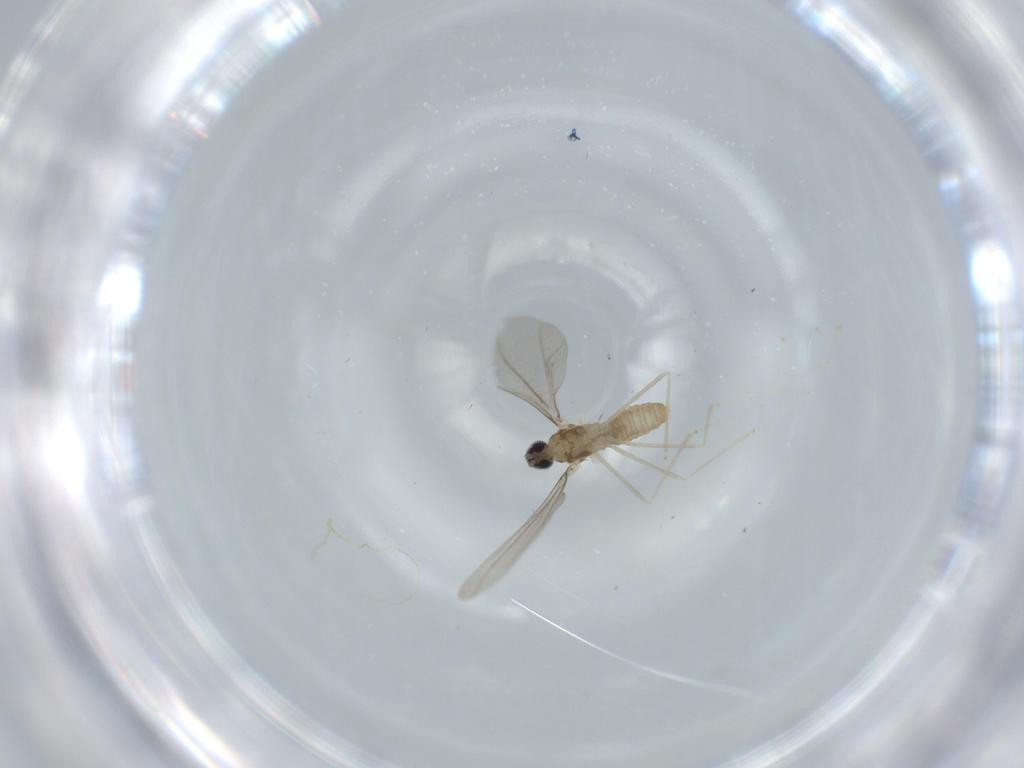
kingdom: Animalia
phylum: Arthropoda
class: Insecta
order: Diptera
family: Cecidomyiidae
